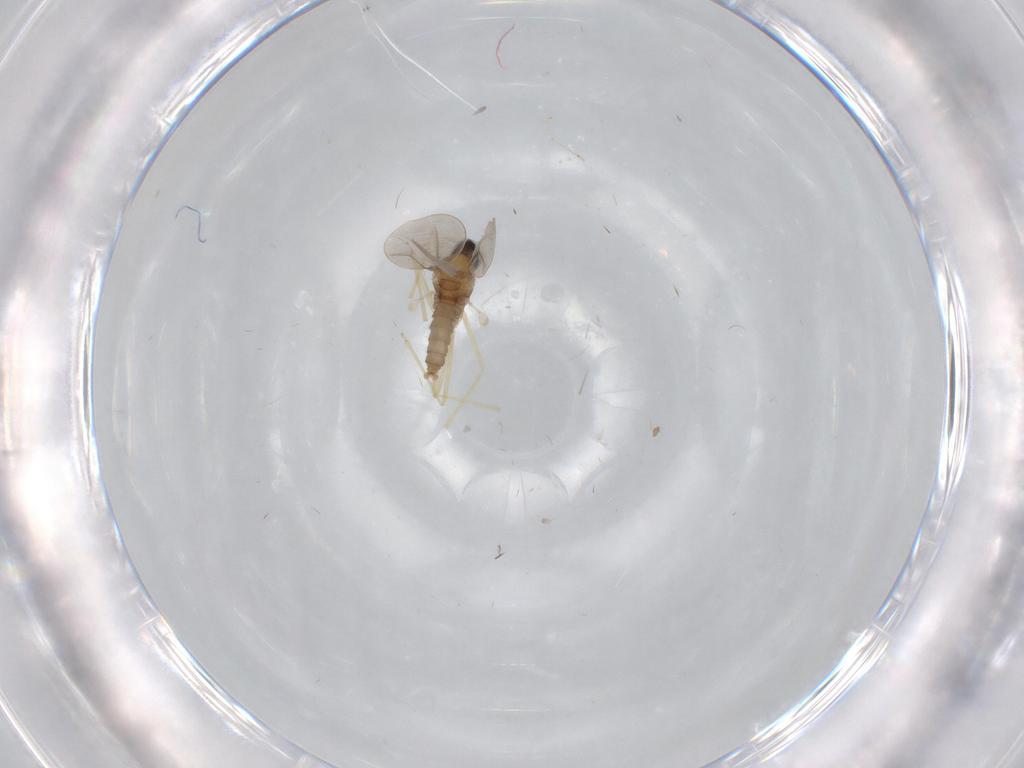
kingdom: Animalia
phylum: Arthropoda
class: Insecta
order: Diptera
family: Cecidomyiidae
